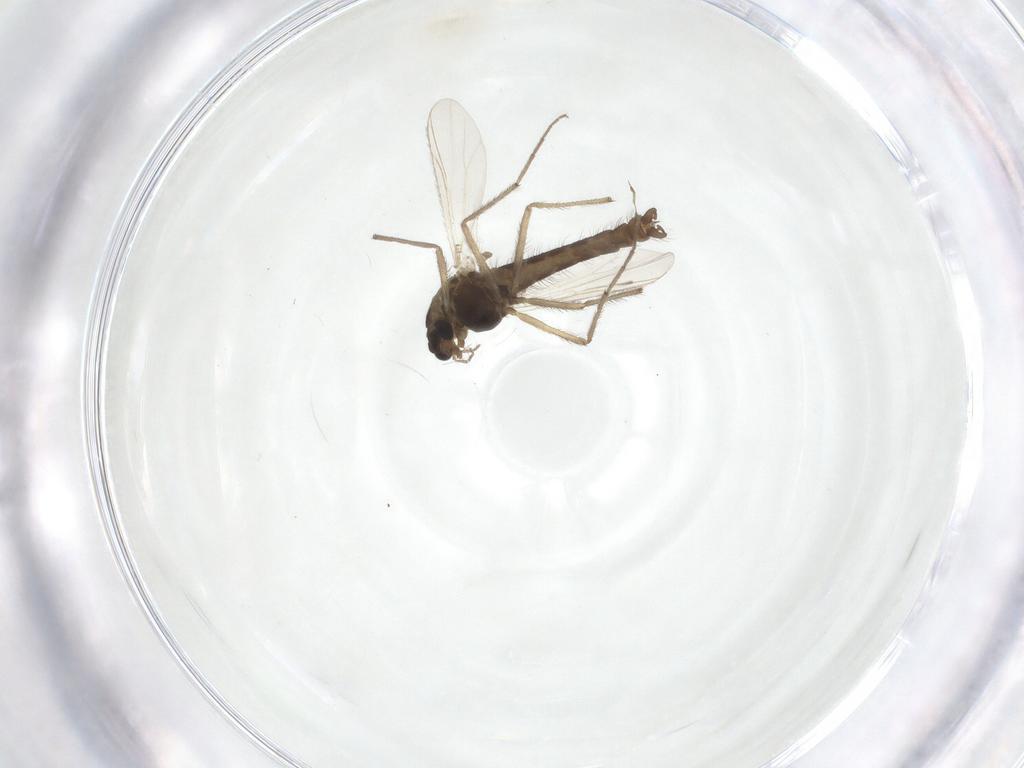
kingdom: Animalia
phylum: Arthropoda
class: Insecta
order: Diptera
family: Chironomidae
